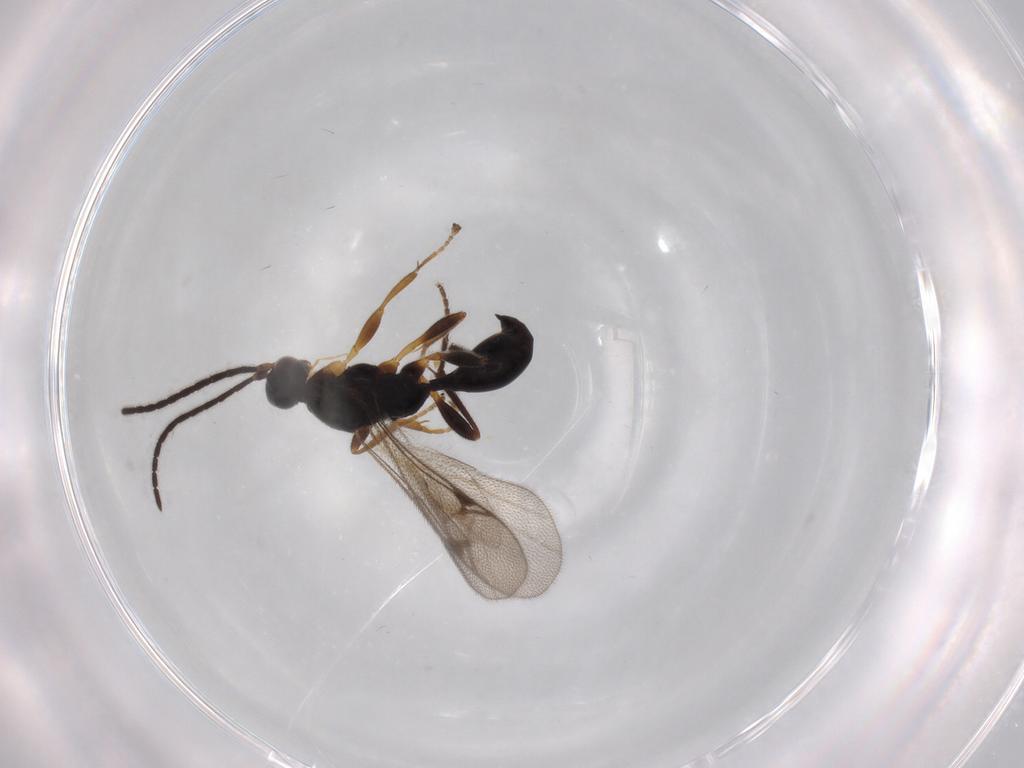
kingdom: Animalia
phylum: Arthropoda
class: Insecta
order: Hymenoptera
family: Proctotrupidae
